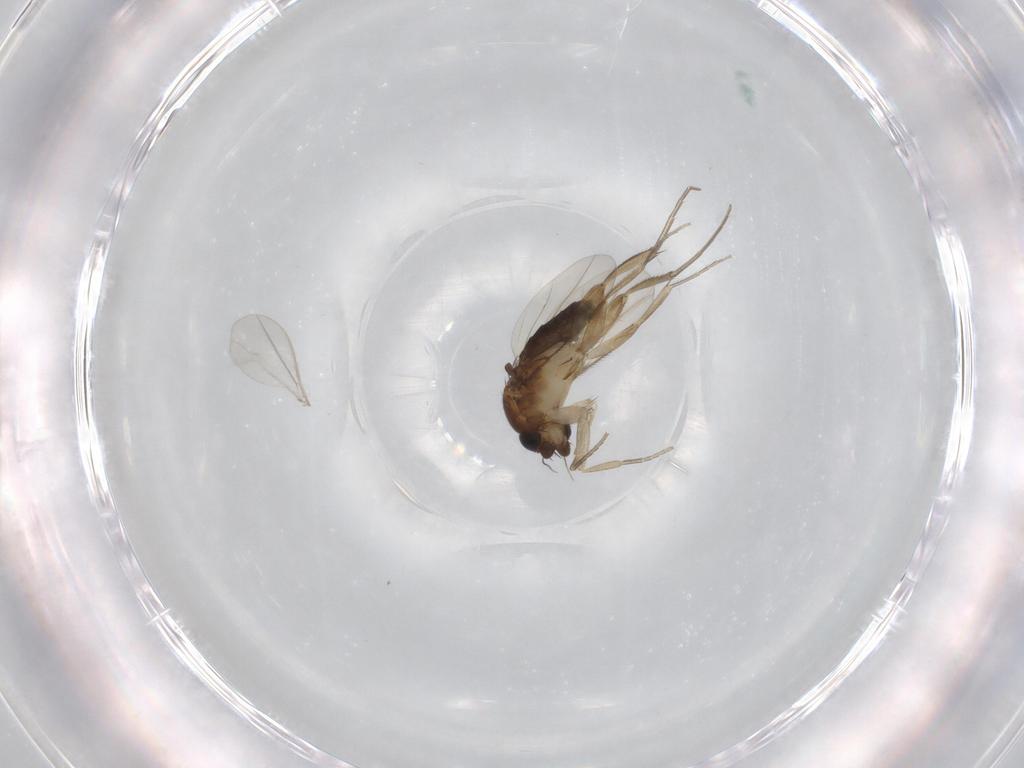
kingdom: Animalia
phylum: Arthropoda
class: Insecta
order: Diptera
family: Phoridae
